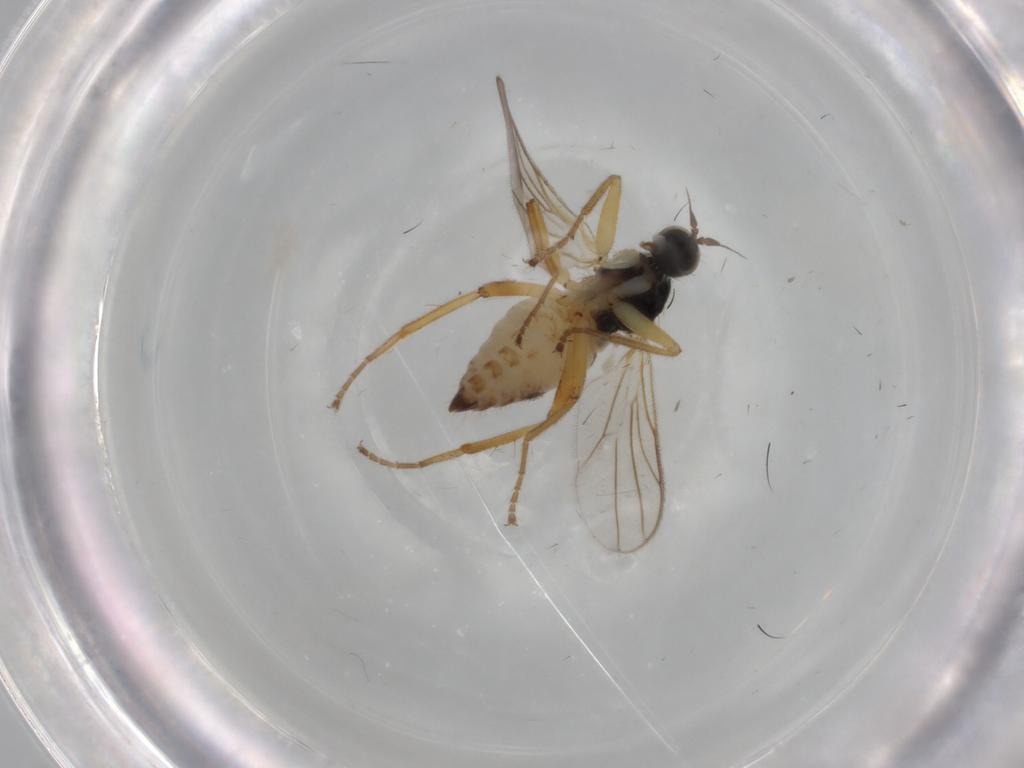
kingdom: Animalia
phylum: Arthropoda
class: Insecta
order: Diptera
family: Hybotidae
